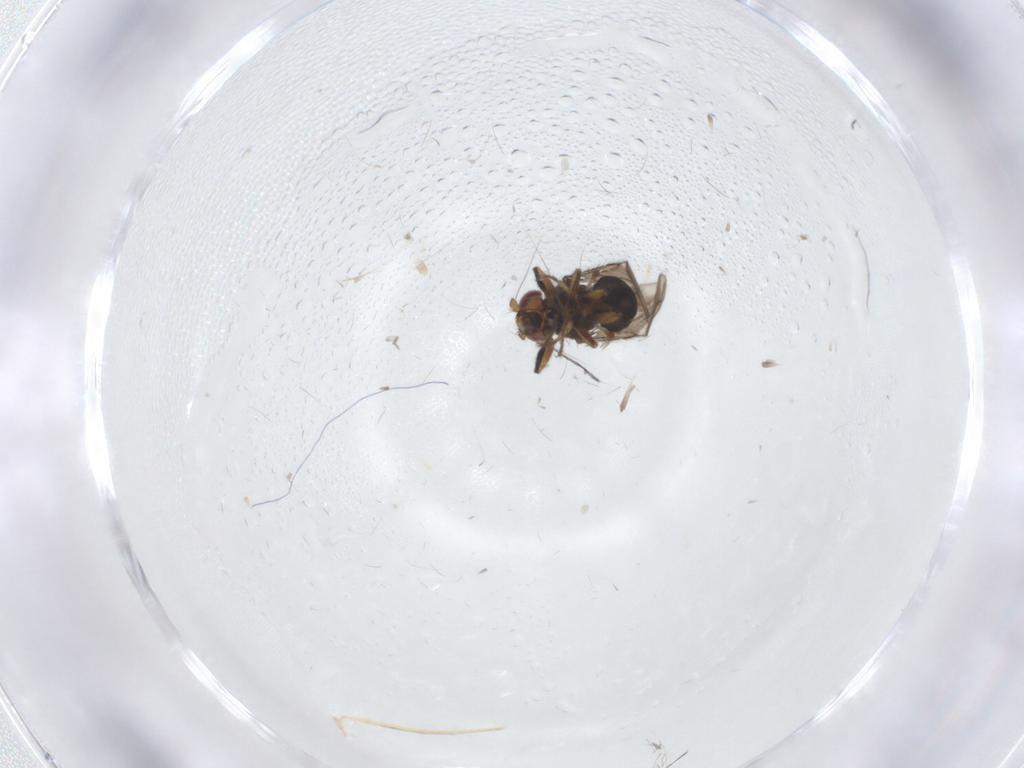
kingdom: Animalia
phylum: Arthropoda
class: Insecta
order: Diptera
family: Sphaeroceridae
